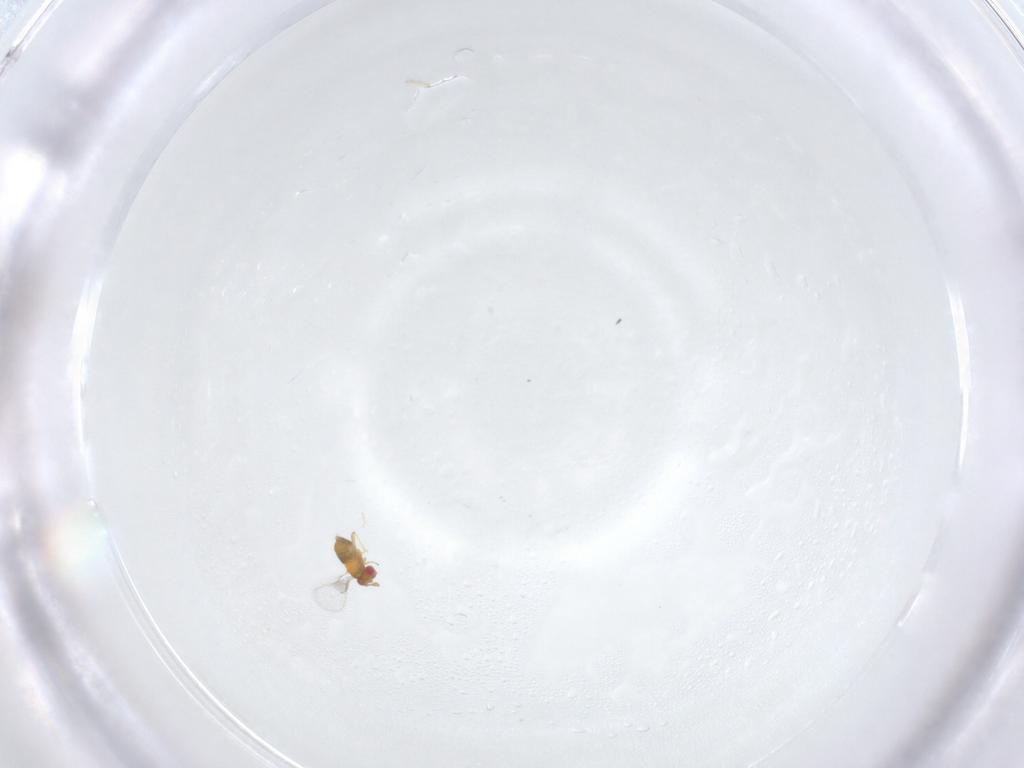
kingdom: Animalia
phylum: Arthropoda
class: Insecta
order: Hymenoptera
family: Trichogrammatidae
